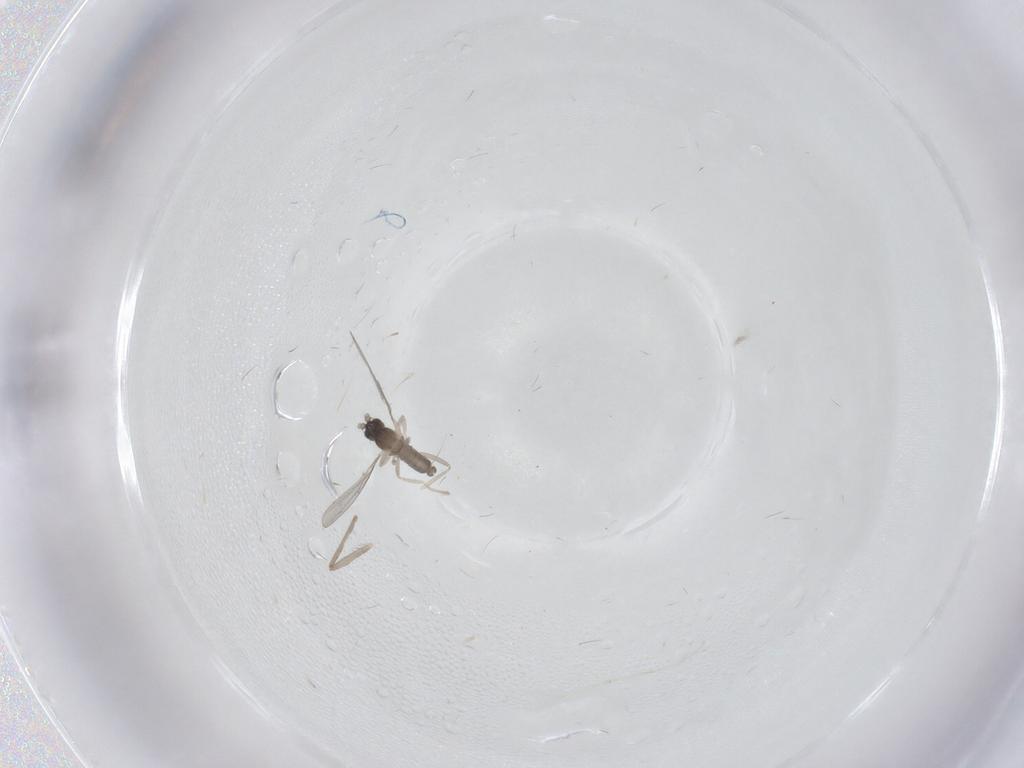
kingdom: Animalia
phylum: Arthropoda
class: Insecta
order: Diptera
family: Cecidomyiidae
